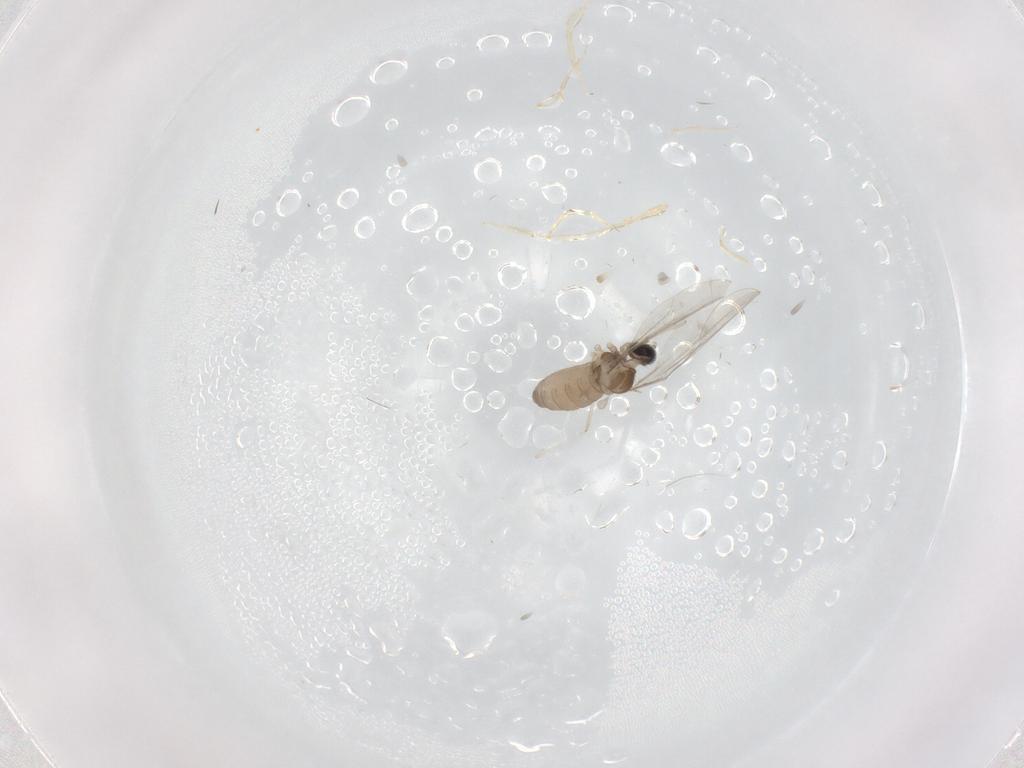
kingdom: Animalia
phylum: Arthropoda
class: Insecta
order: Diptera
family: Cecidomyiidae
